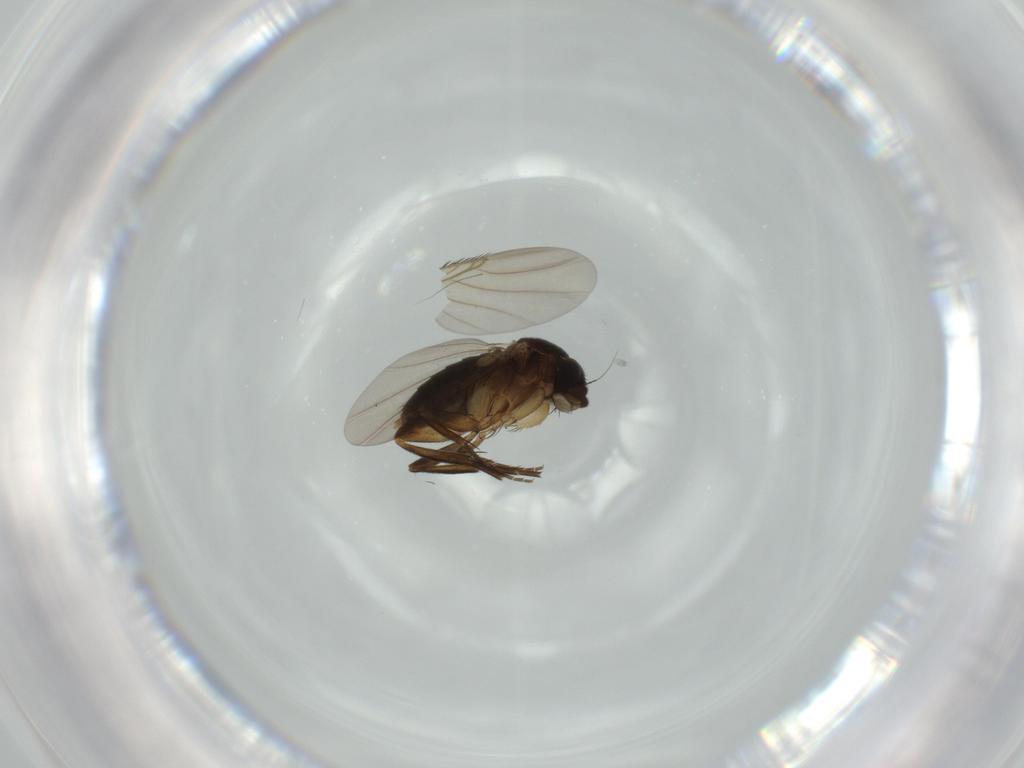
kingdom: Animalia
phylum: Arthropoda
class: Insecta
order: Diptera
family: Phoridae
